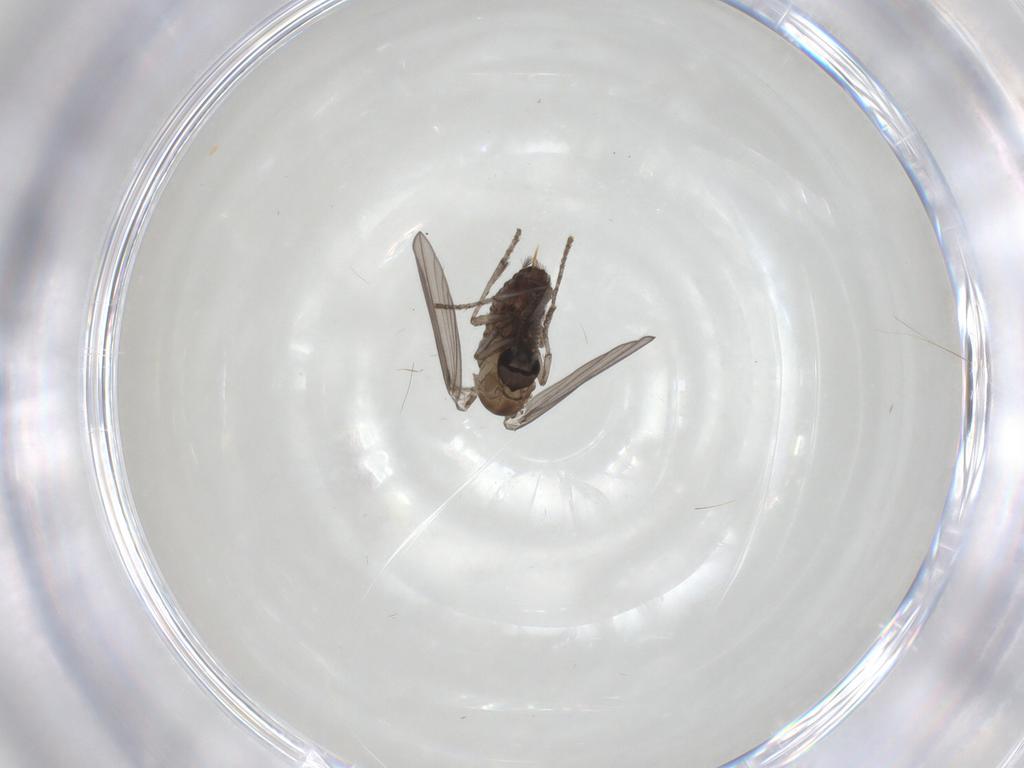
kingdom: Animalia
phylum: Arthropoda
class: Insecta
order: Diptera
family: Psychodidae
